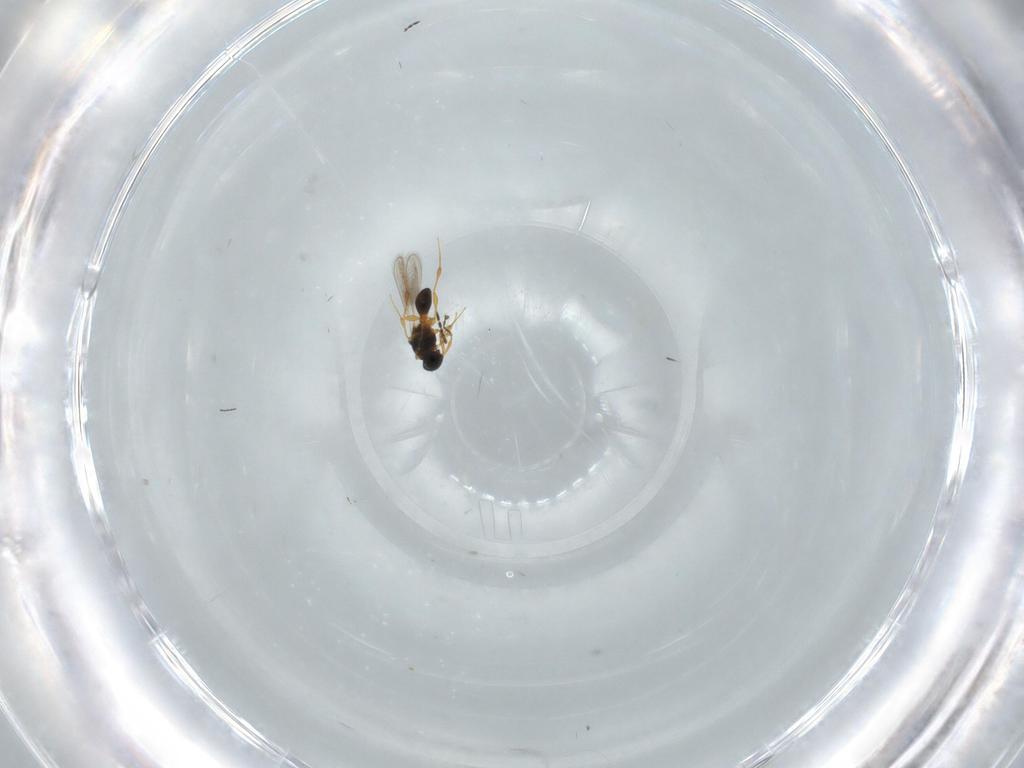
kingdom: Animalia
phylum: Arthropoda
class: Insecta
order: Hymenoptera
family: Platygastridae
